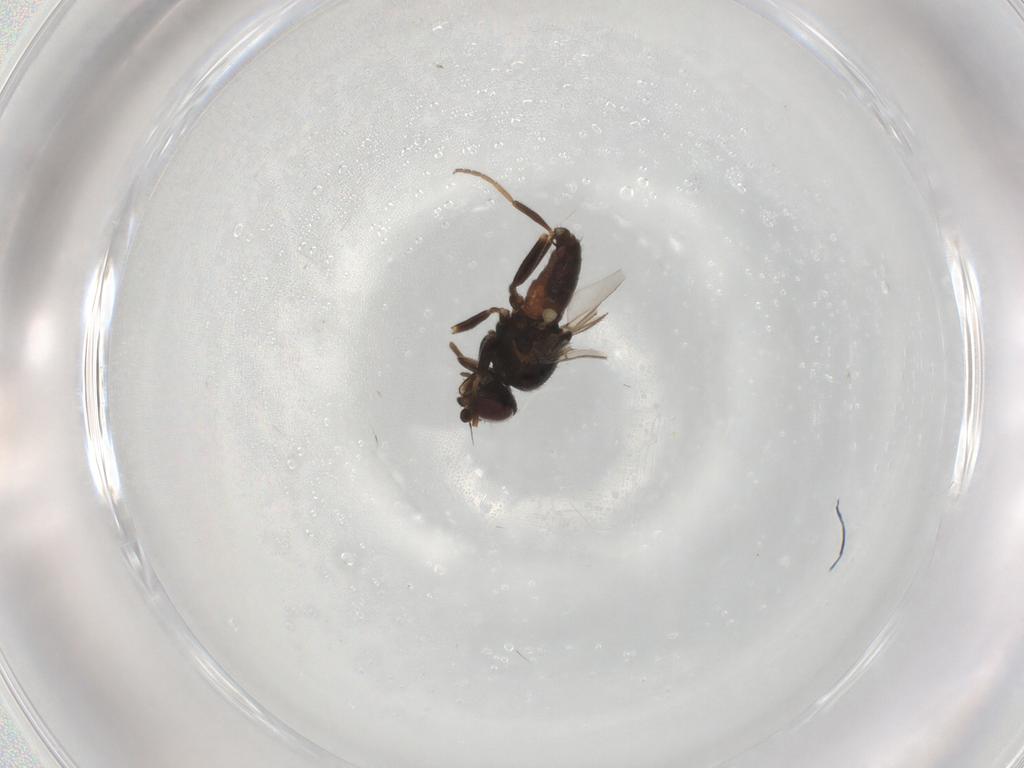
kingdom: Animalia
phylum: Arthropoda
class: Insecta
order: Diptera
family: Chloropidae
